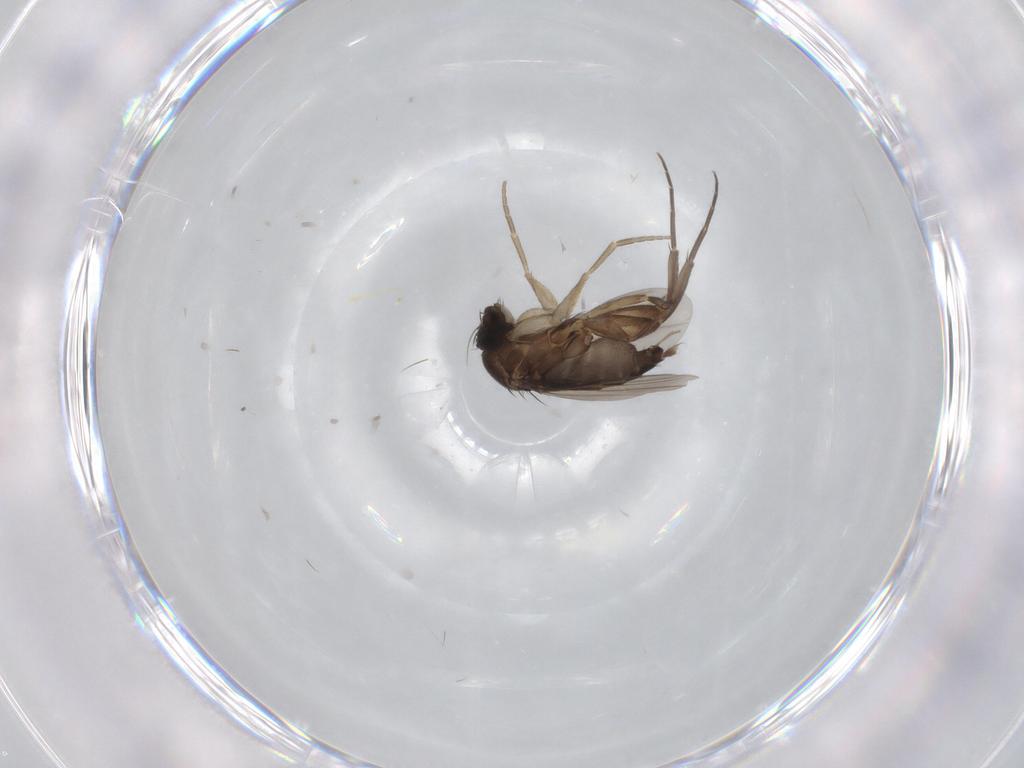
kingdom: Animalia
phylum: Arthropoda
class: Insecta
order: Diptera
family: Phoridae
